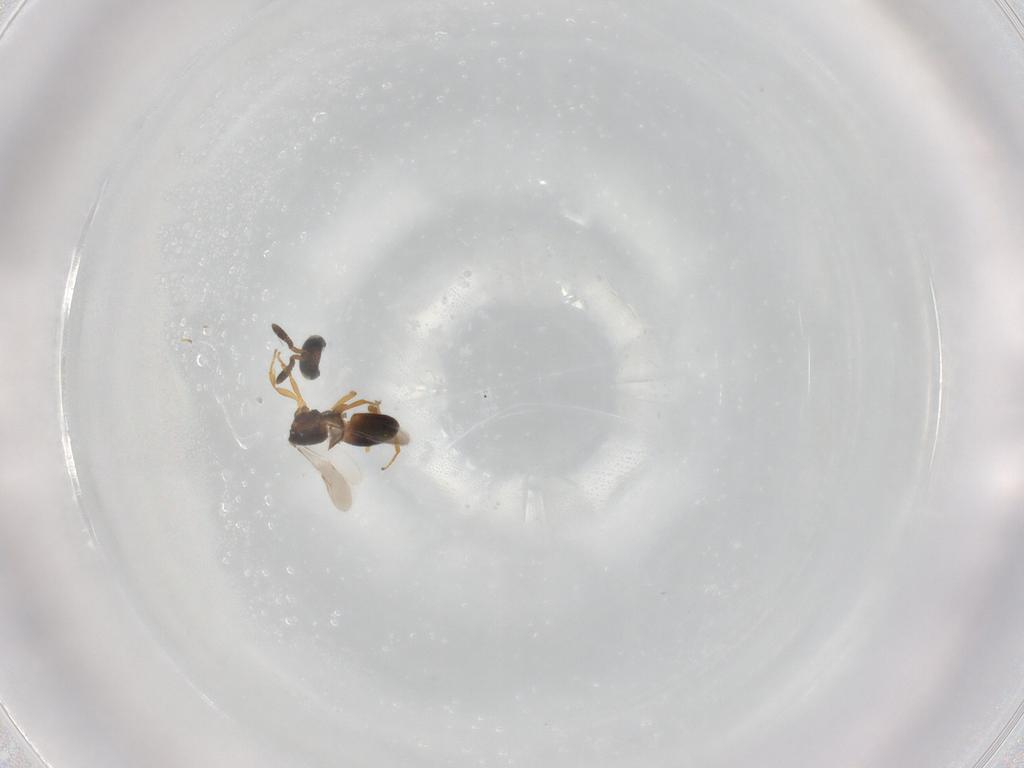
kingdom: Animalia
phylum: Arthropoda
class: Insecta
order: Hymenoptera
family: Scelionidae
